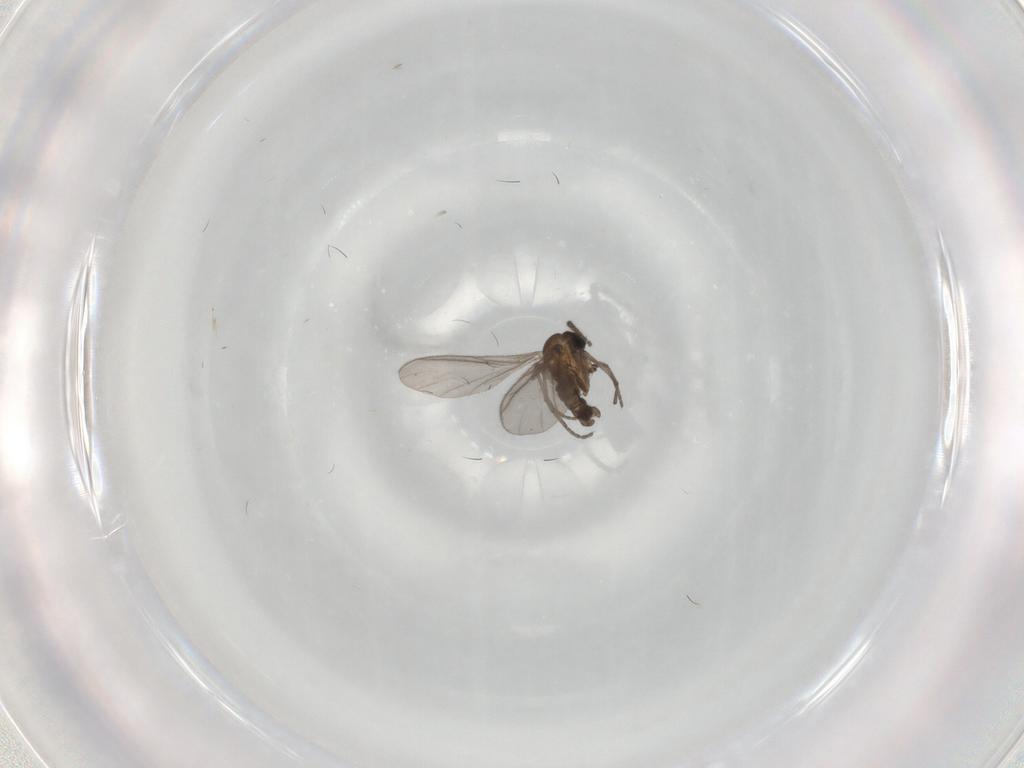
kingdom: Animalia
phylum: Arthropoda
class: Insecta
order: Diptera
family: Sciaridae
